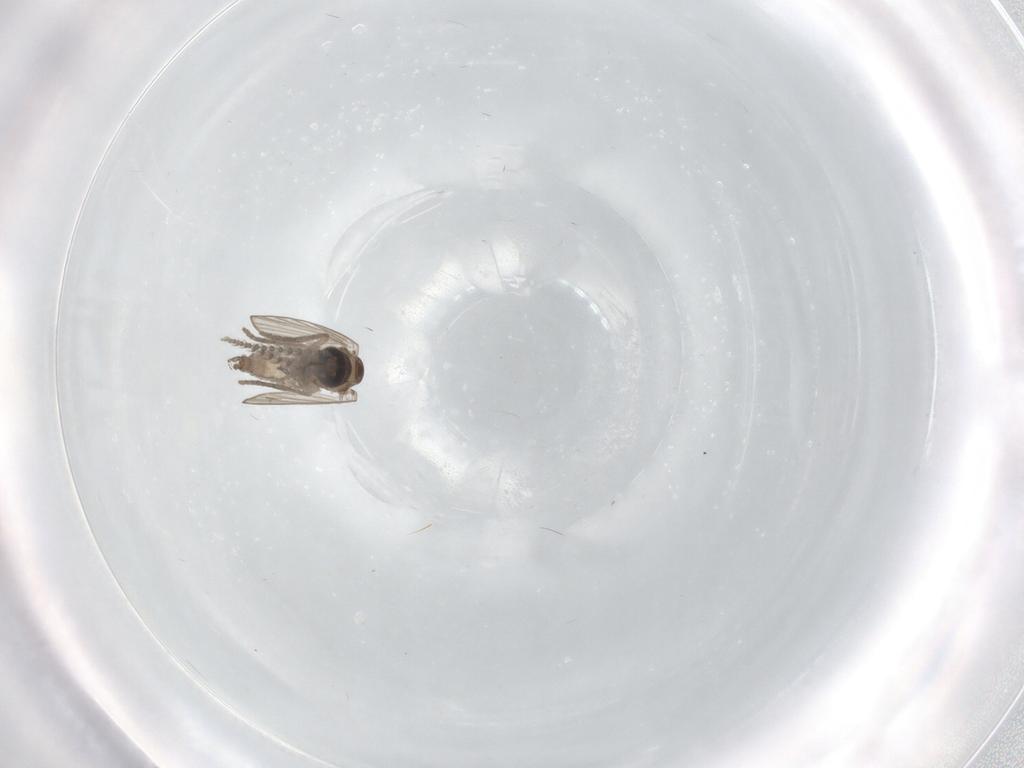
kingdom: Animalia
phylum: Arthropoda
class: Insecta
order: Diptera
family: Psychodidae
